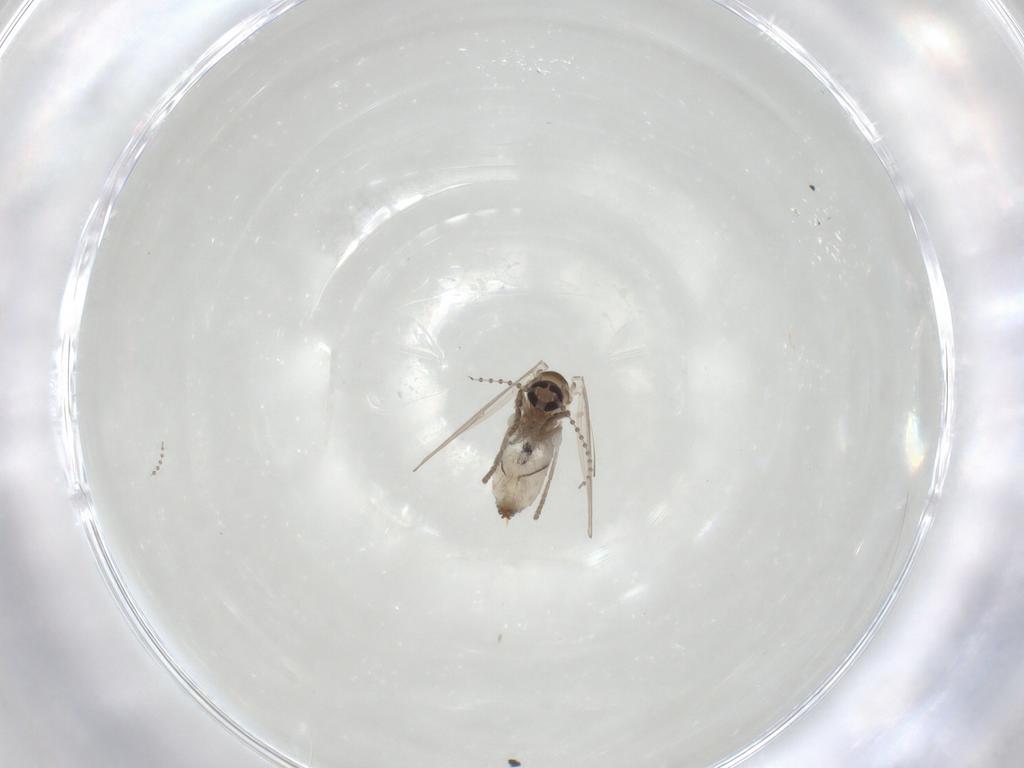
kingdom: Animalia
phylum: Arthropoda
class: Insecta
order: Diptera
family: Psychodidae
